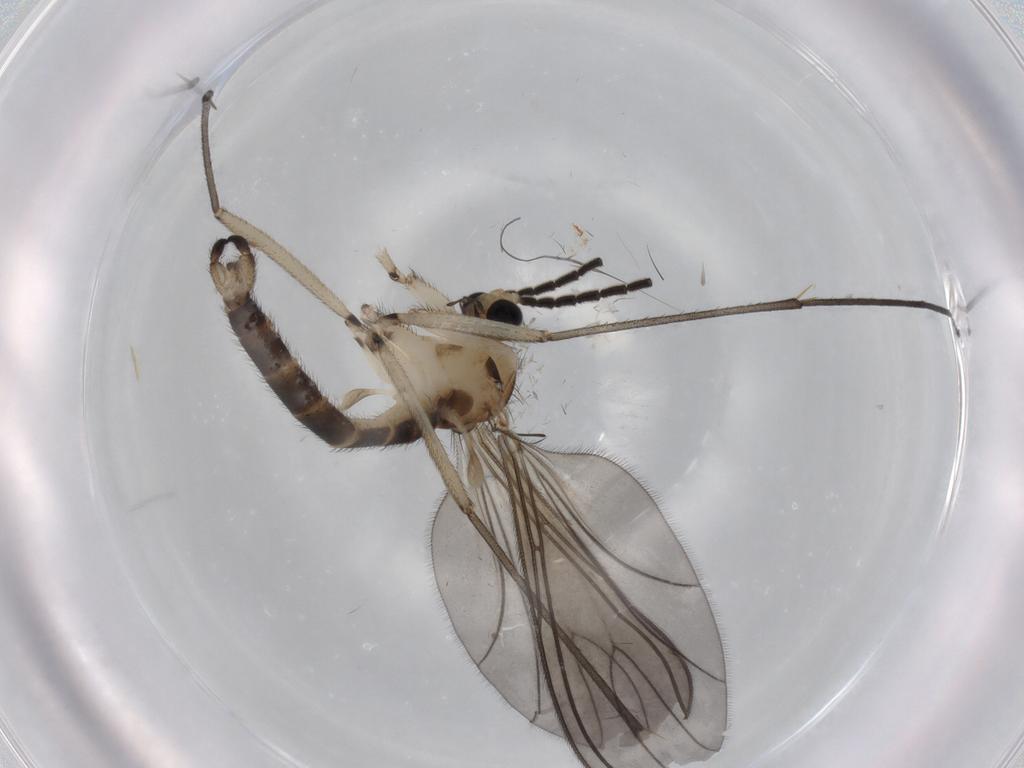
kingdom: Animalia
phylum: Arthropoda
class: Insecta
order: Diptera
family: Sciaridae
